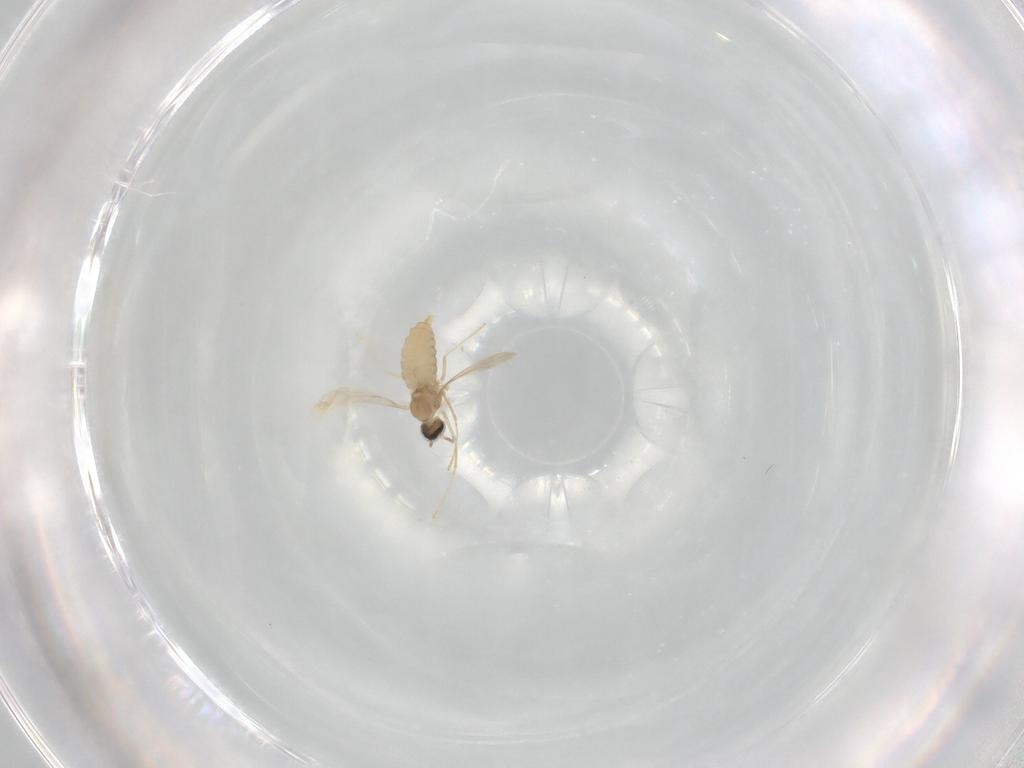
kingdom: Animalia
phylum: Arthropoda
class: Insecta
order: Diptera
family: Cecidomyiidae
